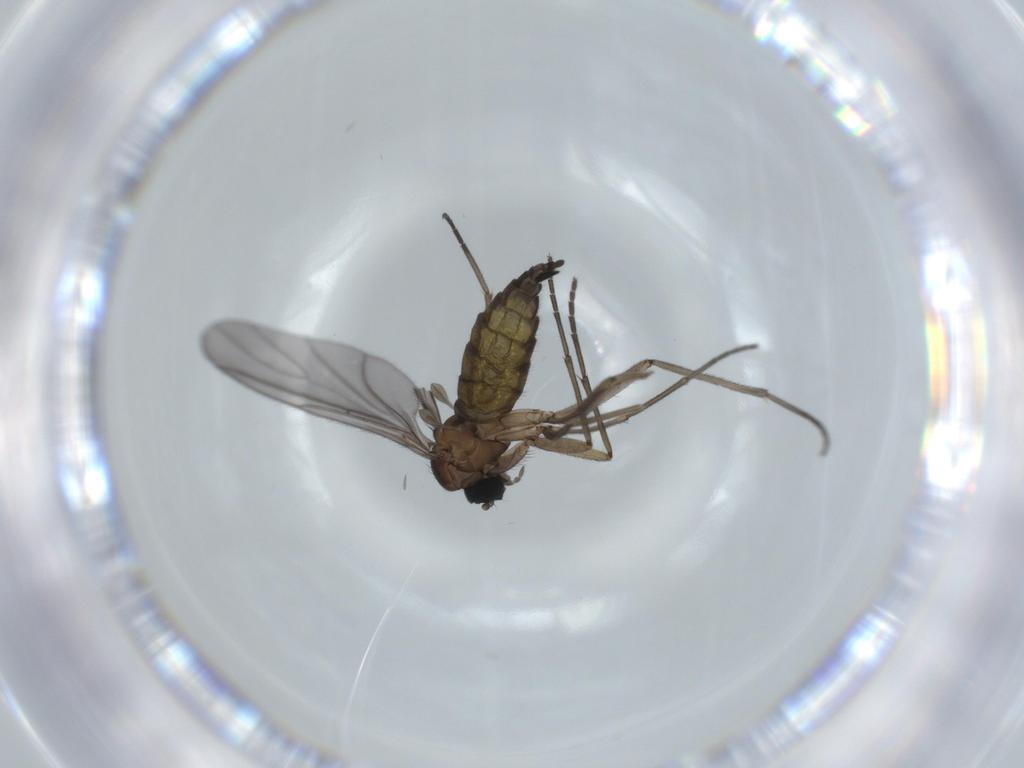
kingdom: Animalia
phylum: Arthropoda
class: Insecta
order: Diptera
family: Sciaridae
